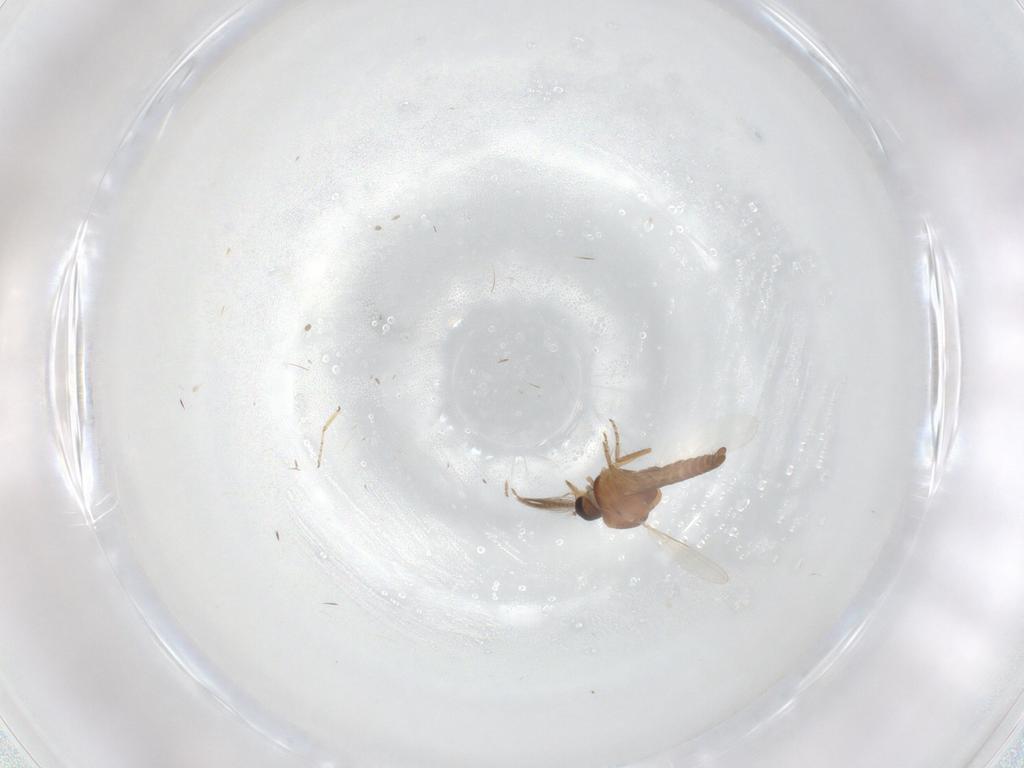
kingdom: Animalia
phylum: Arthropoda
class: Insecta
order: Diptera
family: Ceratopogonidae
